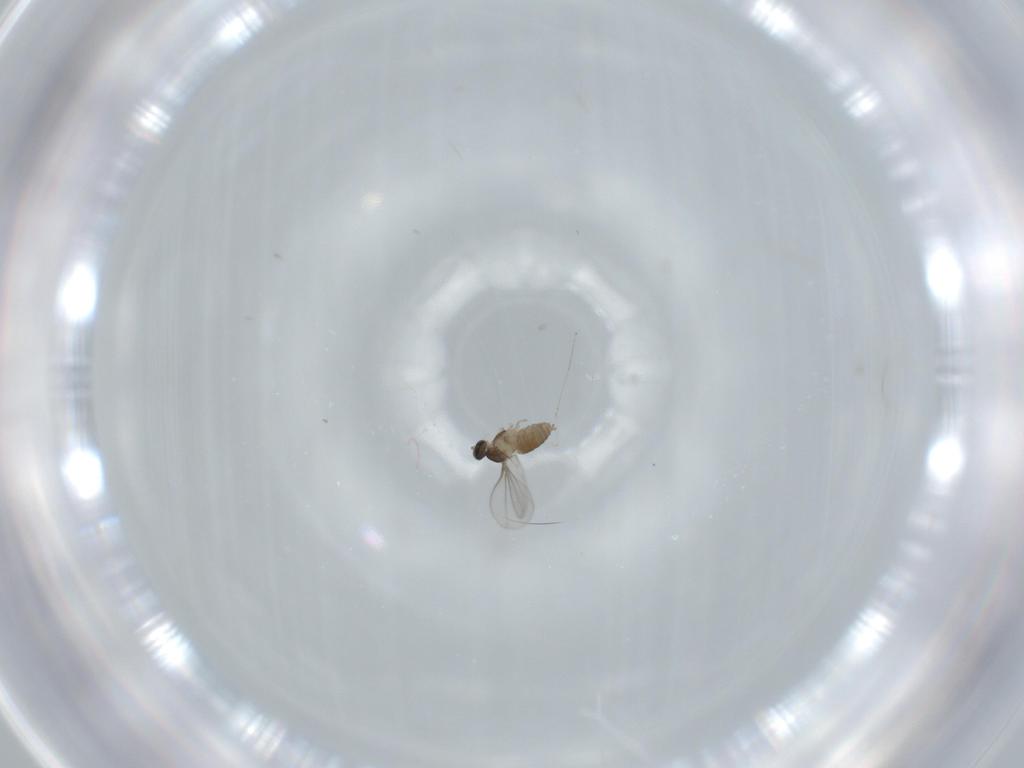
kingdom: Animalia
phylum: Arthropoda
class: Insecta
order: Diptera
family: Cecidomyiidae
